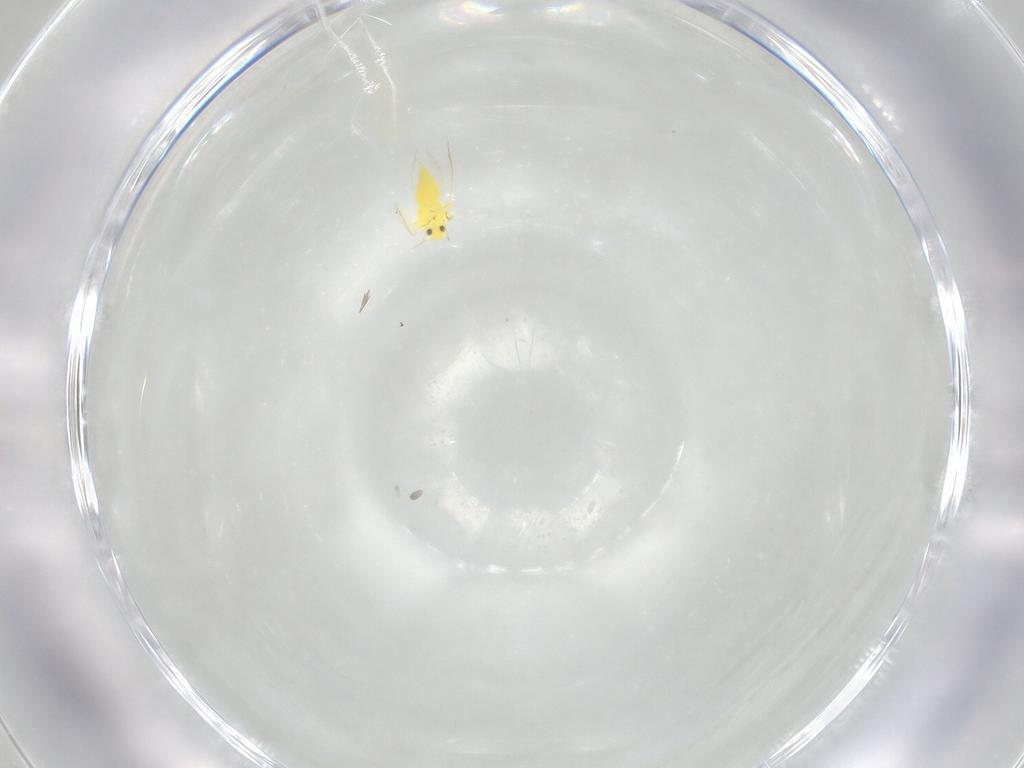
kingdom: Animalia
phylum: Arthropoda
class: Insecta
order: Hemiptera
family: Aleyrodidae
